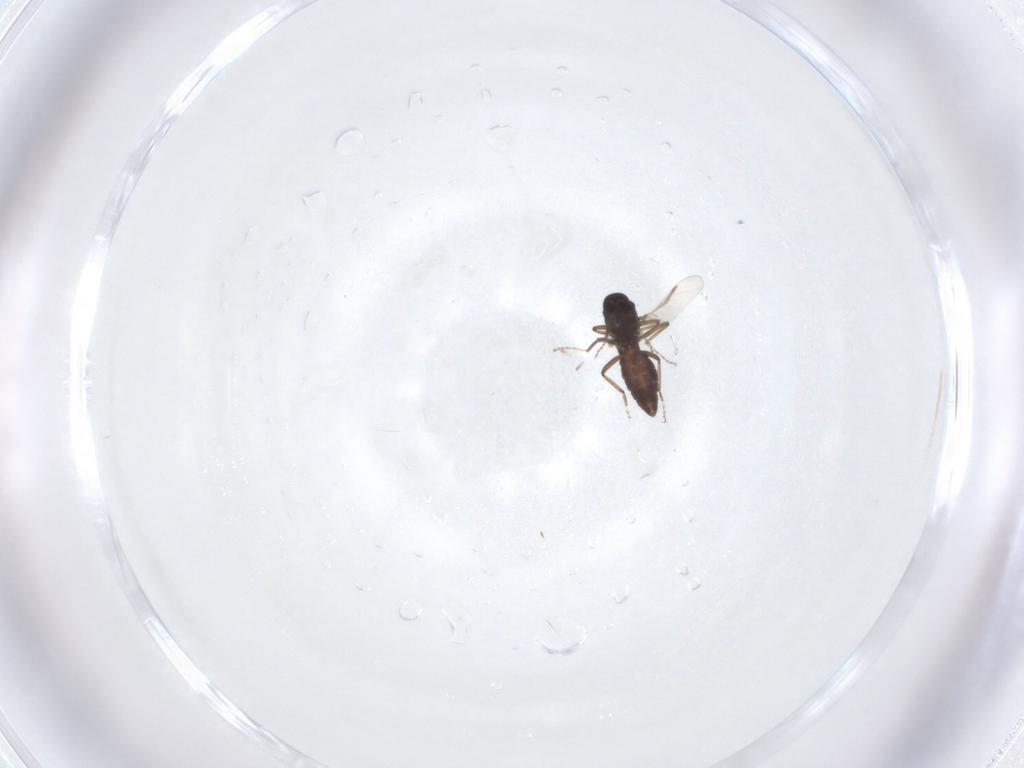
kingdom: Animalia
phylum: Arthropoda
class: Insecta
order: Diptera
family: Ceratopogonidae
